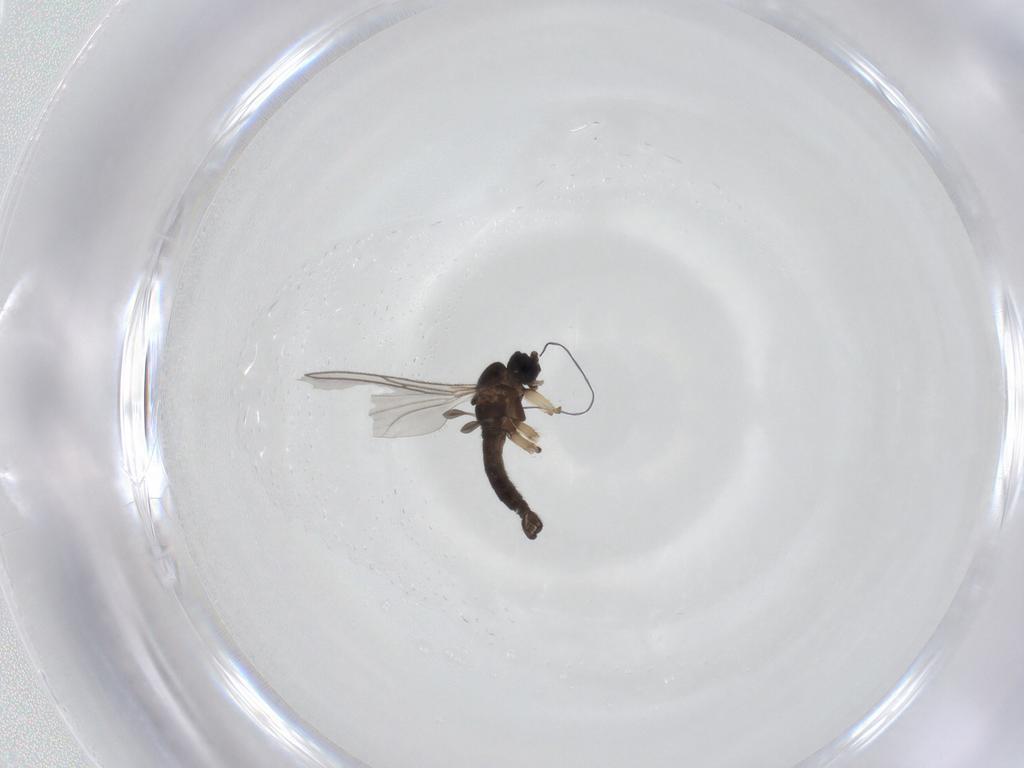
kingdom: Animalia
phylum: Arthropoda
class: Insecta
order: Diptera
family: Sciaridae
